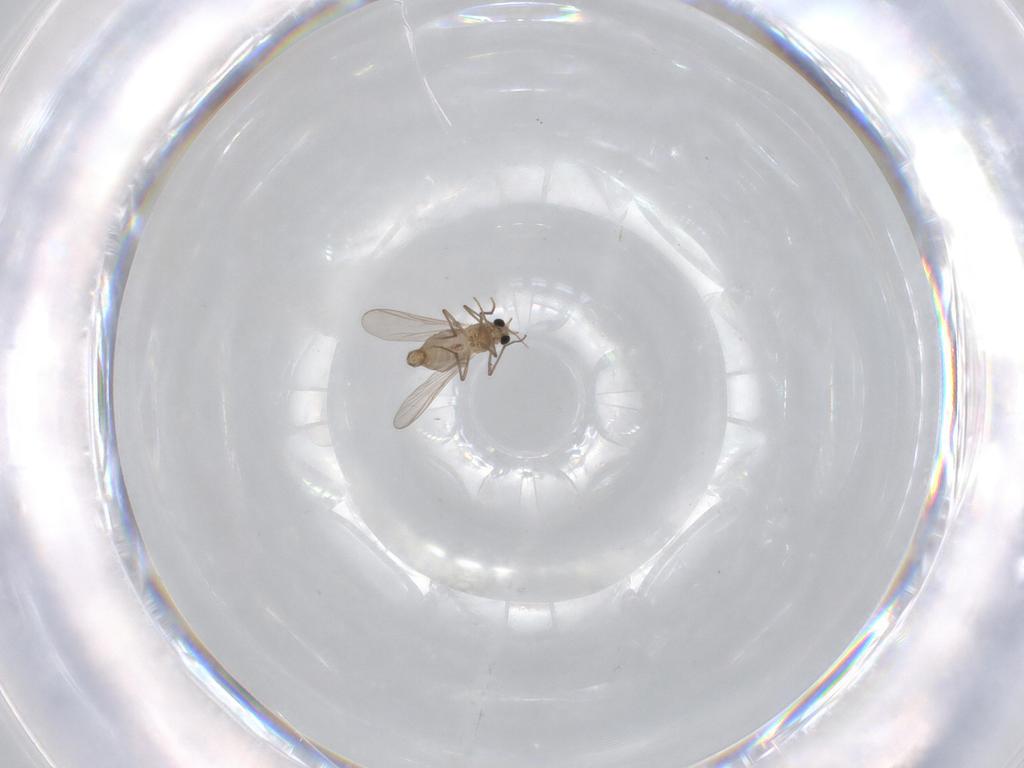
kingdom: Animalia
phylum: Arthropoda
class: Insecta
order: Diptera
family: Chironomidae
